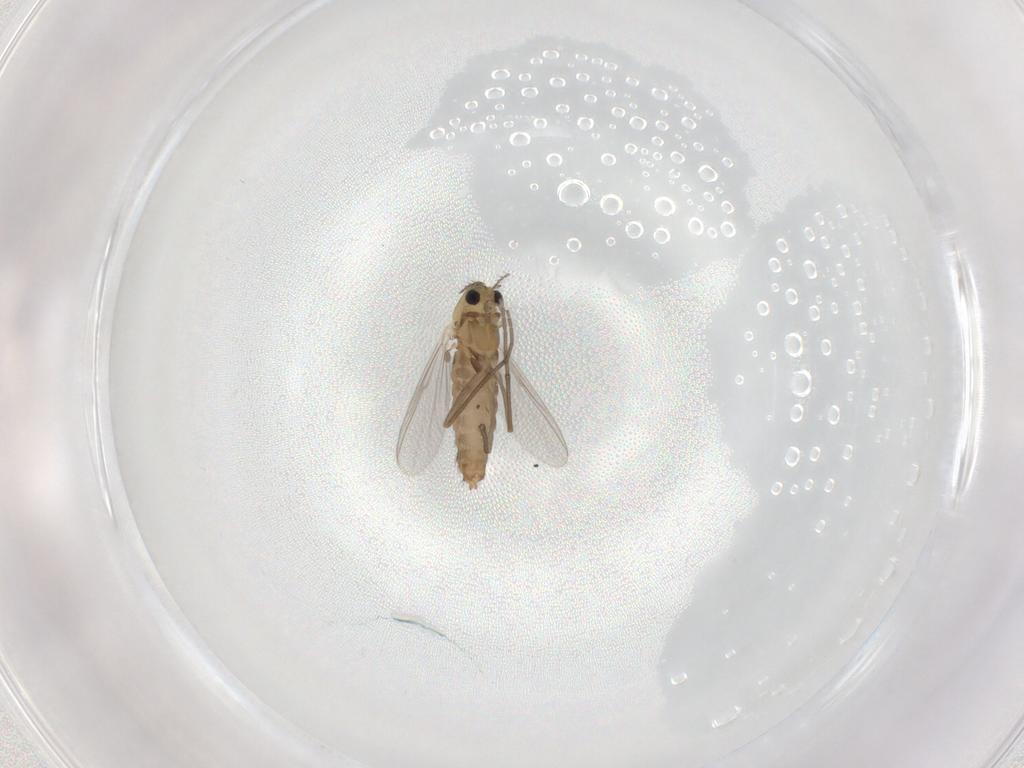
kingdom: Animalia
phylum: Arthropoda
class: Insecta
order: Diptera
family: Chironomidae
